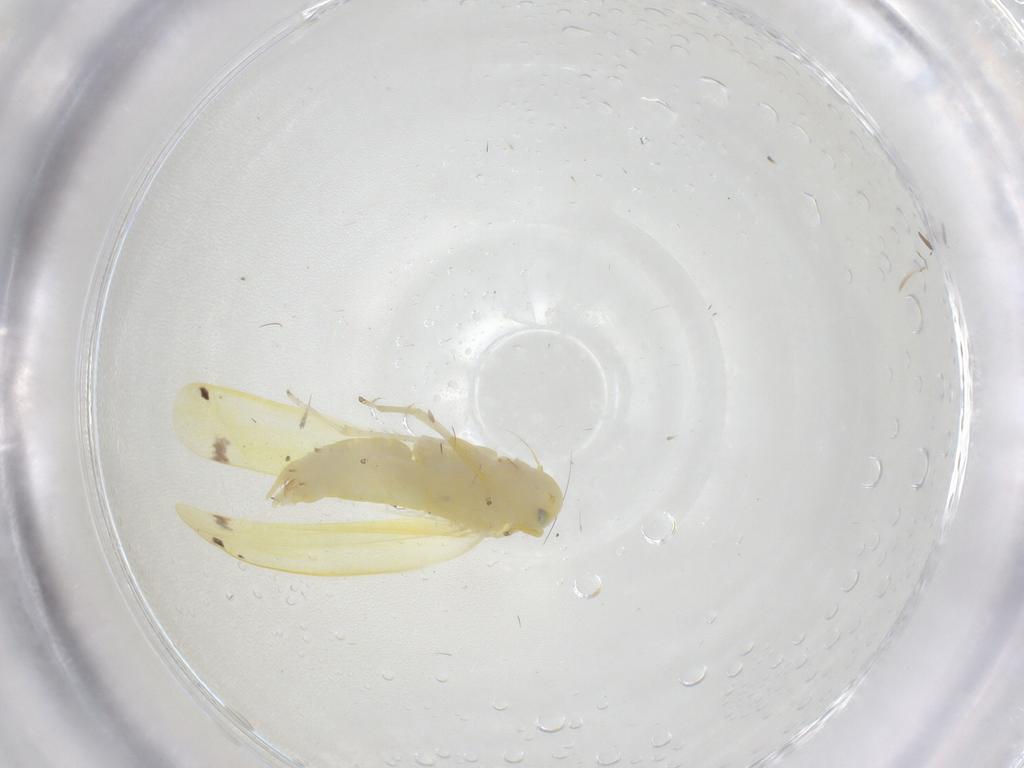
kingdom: Animalia
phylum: Arthropoda
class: Insecta
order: Hemiptera
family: Cicadellidae
